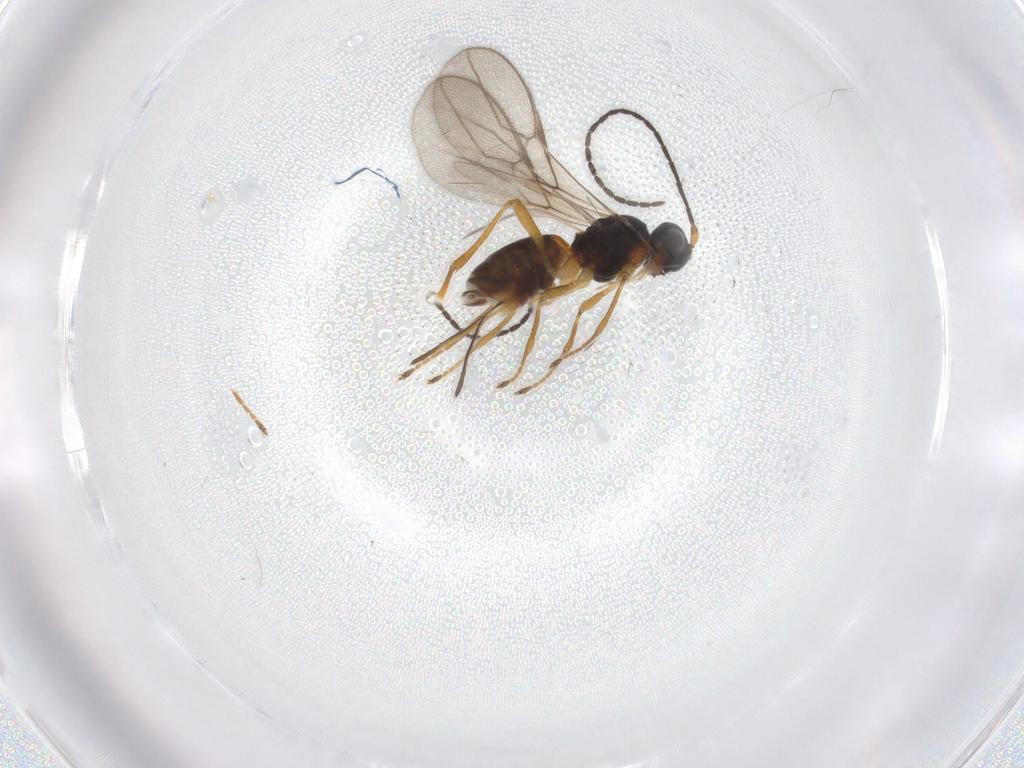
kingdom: Animalia
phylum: Arthropoda
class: Insecta
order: Hymenoptera
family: Braconidae
